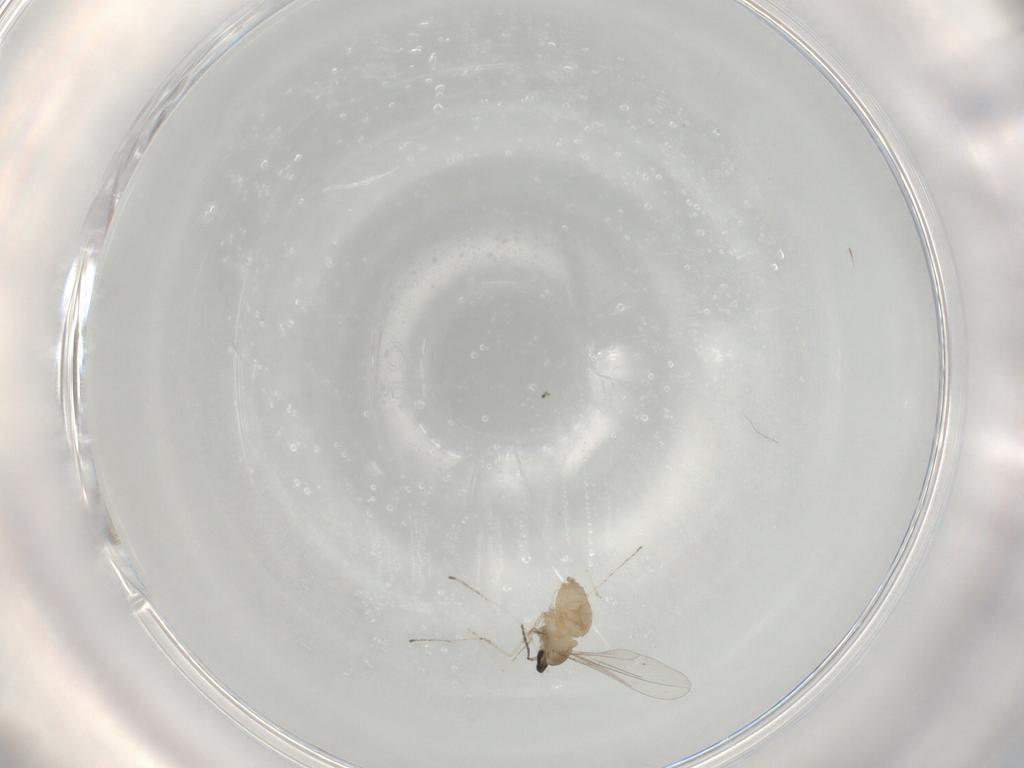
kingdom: Animalia
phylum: Arthropoda
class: Insecta
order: Diptera
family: Cecidomyiidae
